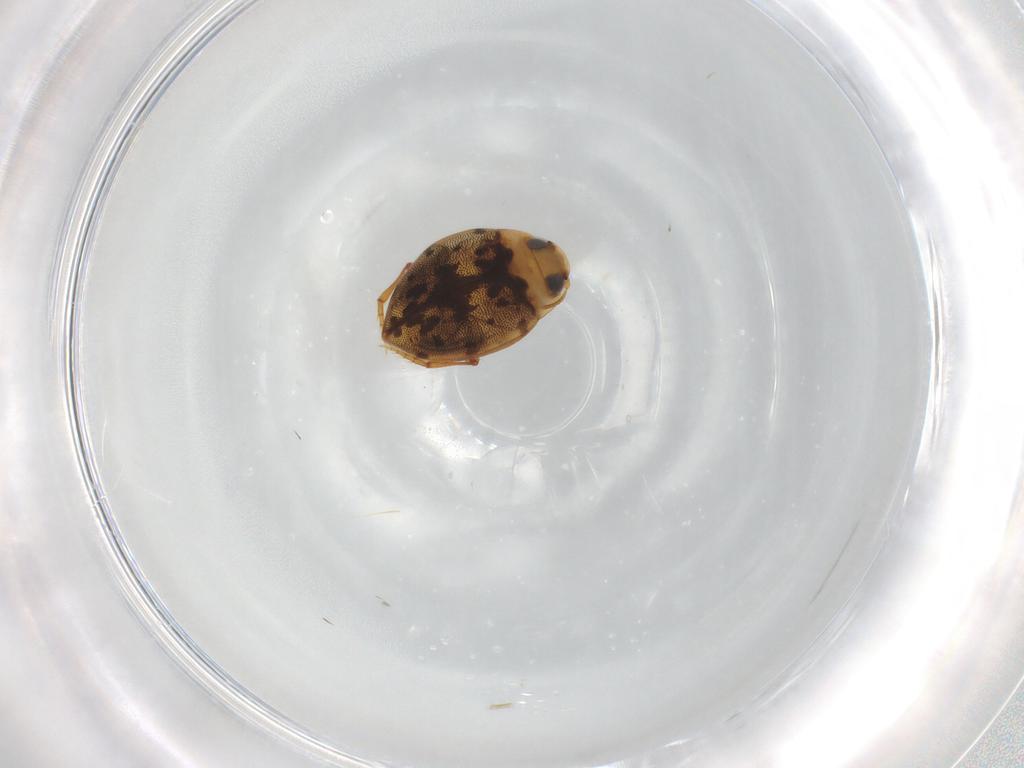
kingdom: Animalia
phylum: Arthropoda
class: Insecta
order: Coleoptera
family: Dytiscidae
